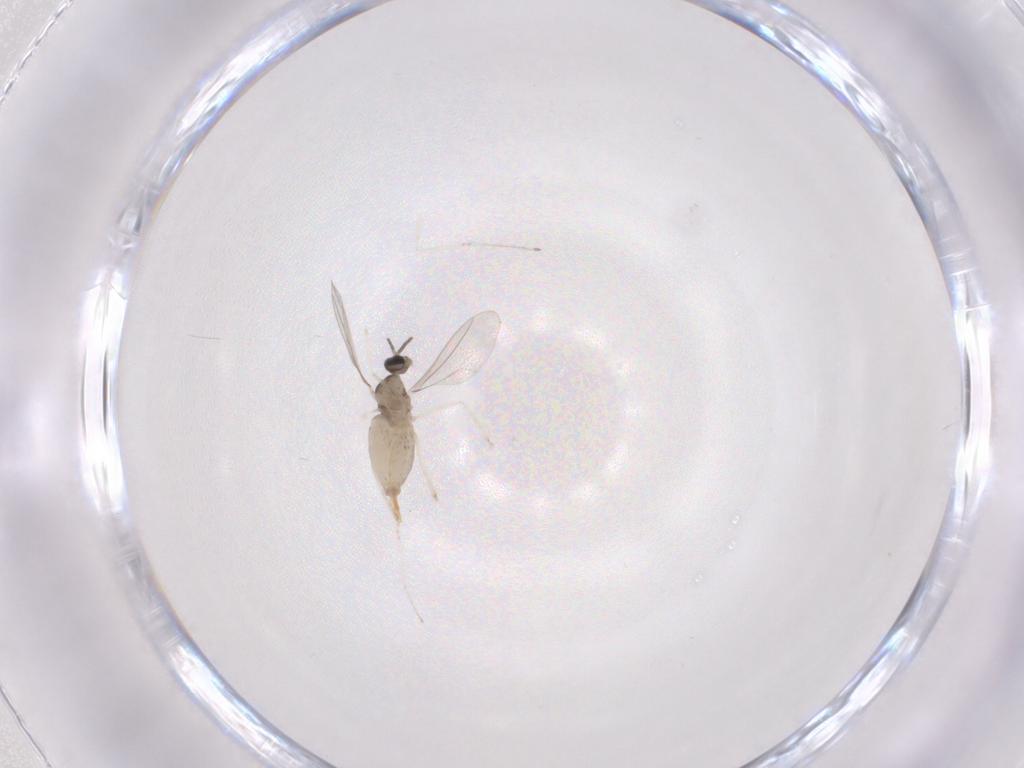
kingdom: Animalia
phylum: Arthropoda
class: Insecta
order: Diptera
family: Cecidomyiidae
